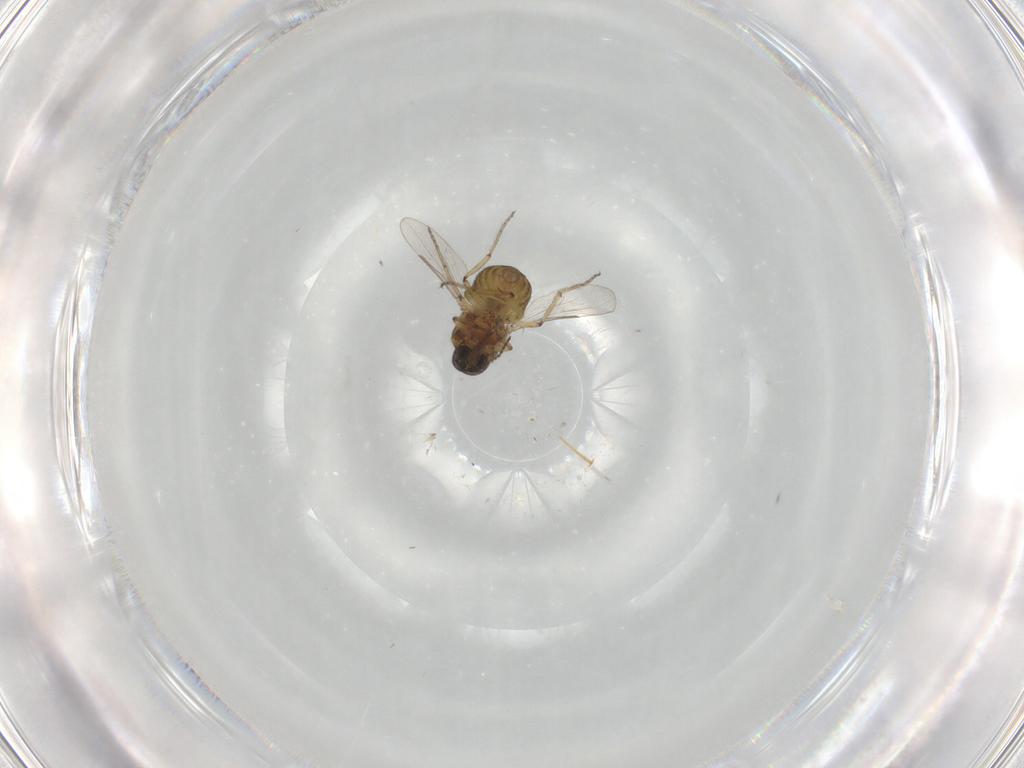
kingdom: Animalia
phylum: Arthropoda
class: Insecta
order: Diptera
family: Ceratopogonidae
